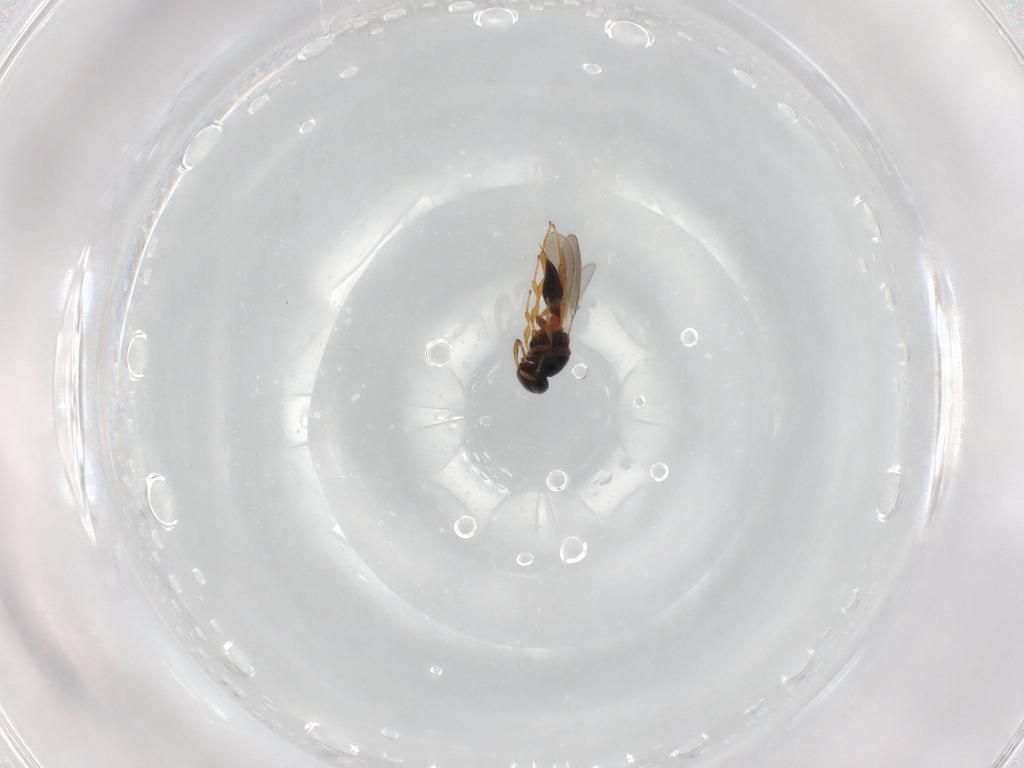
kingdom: Animalia
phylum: Arthropoda
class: Insecta
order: Hymenoptera
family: Platygastridae
